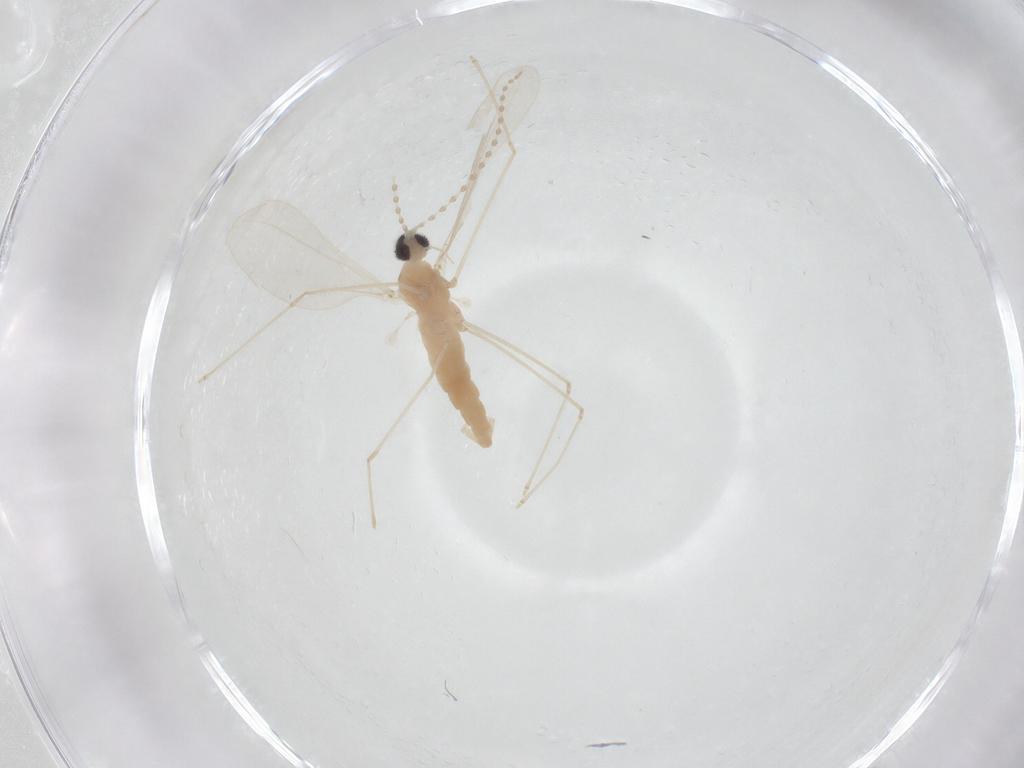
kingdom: Animalia
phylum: Arthropoda
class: Insecta
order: Diptera
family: Cecidomyiidae
